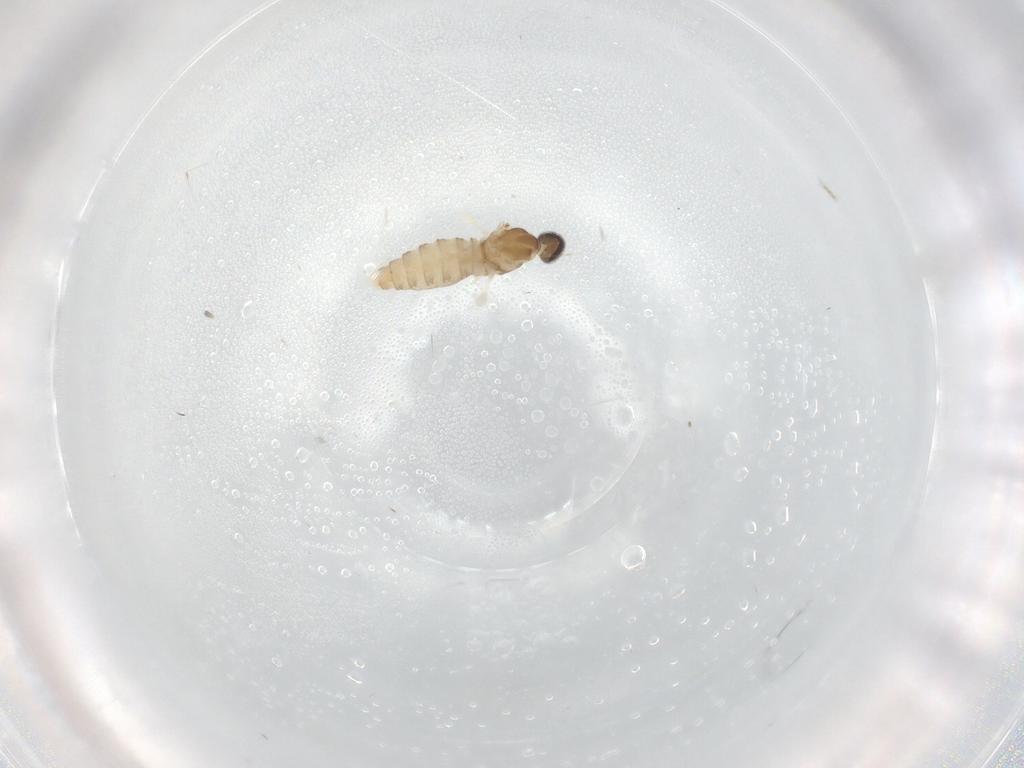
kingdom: Animalia
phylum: Arthropoda
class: Insecta
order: Diptera
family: Cecidomyiidae
